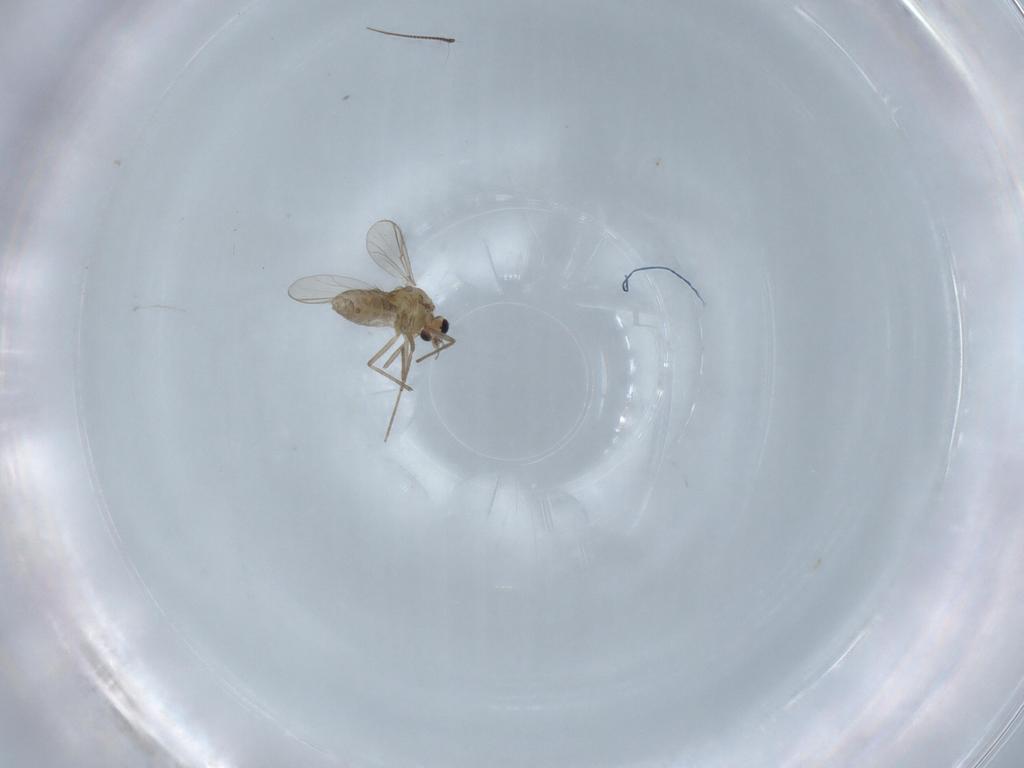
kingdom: Animalia
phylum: Arthropoda
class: Insecta
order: Diptera
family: Chironomidae
